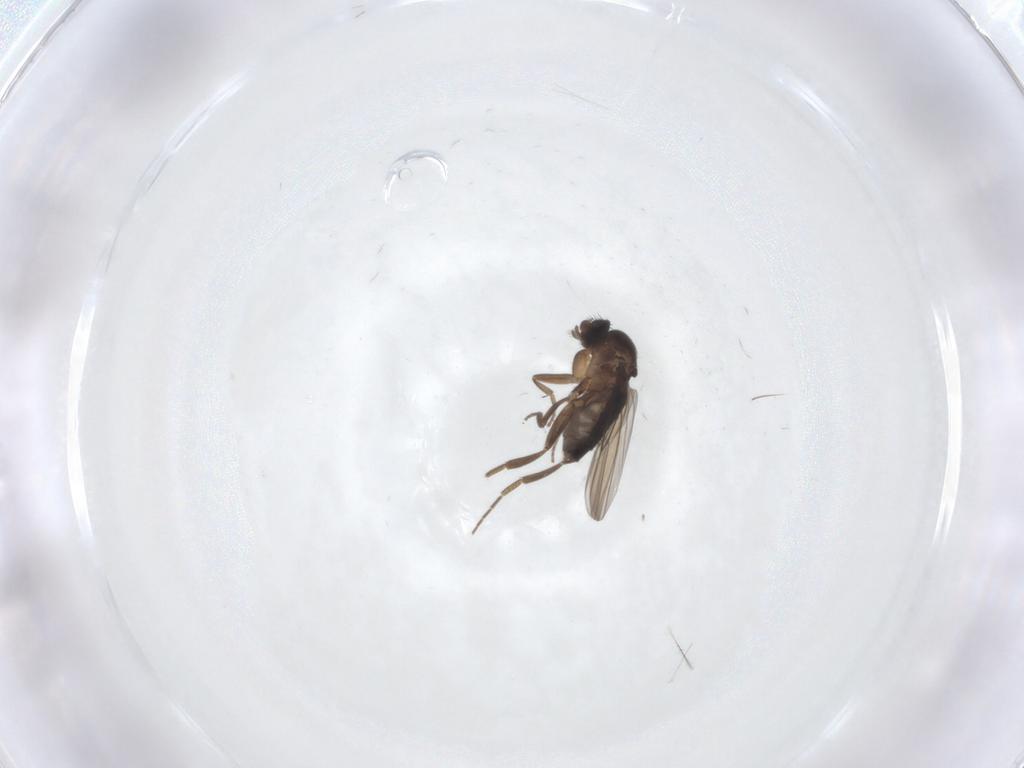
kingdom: Animalia
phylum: Arthropoda
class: Insecta
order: Diptera
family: Phoridae
